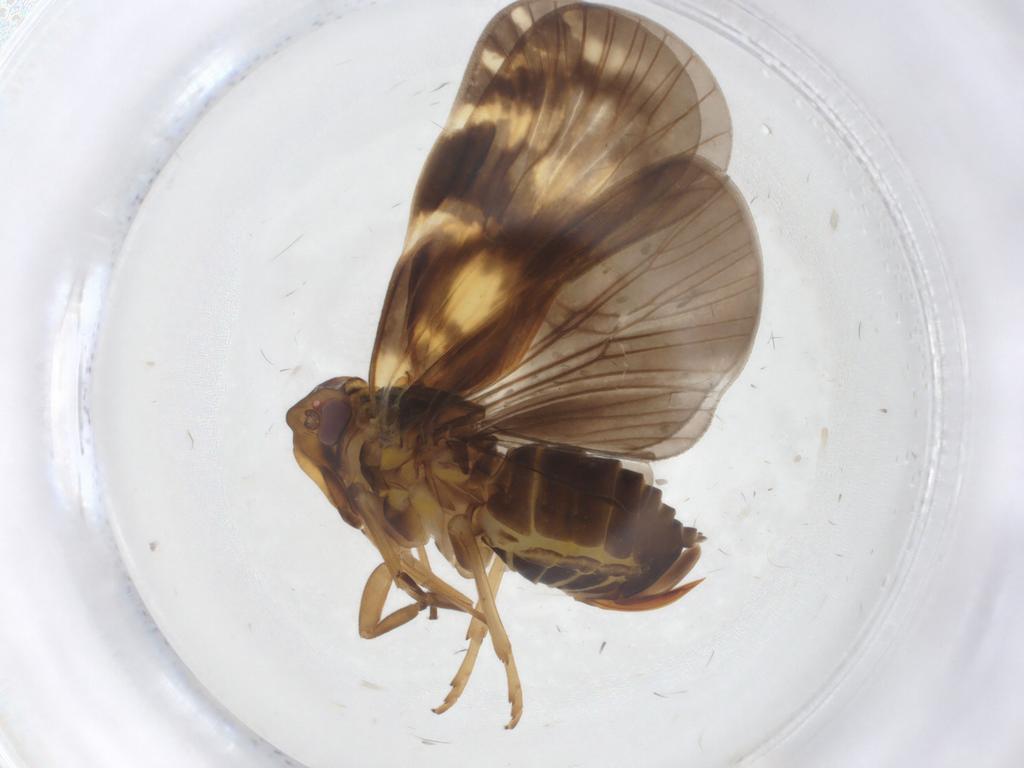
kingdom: Animalia
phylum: Arthropoda
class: Insecta
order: Hemiptera
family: Cixiidae
